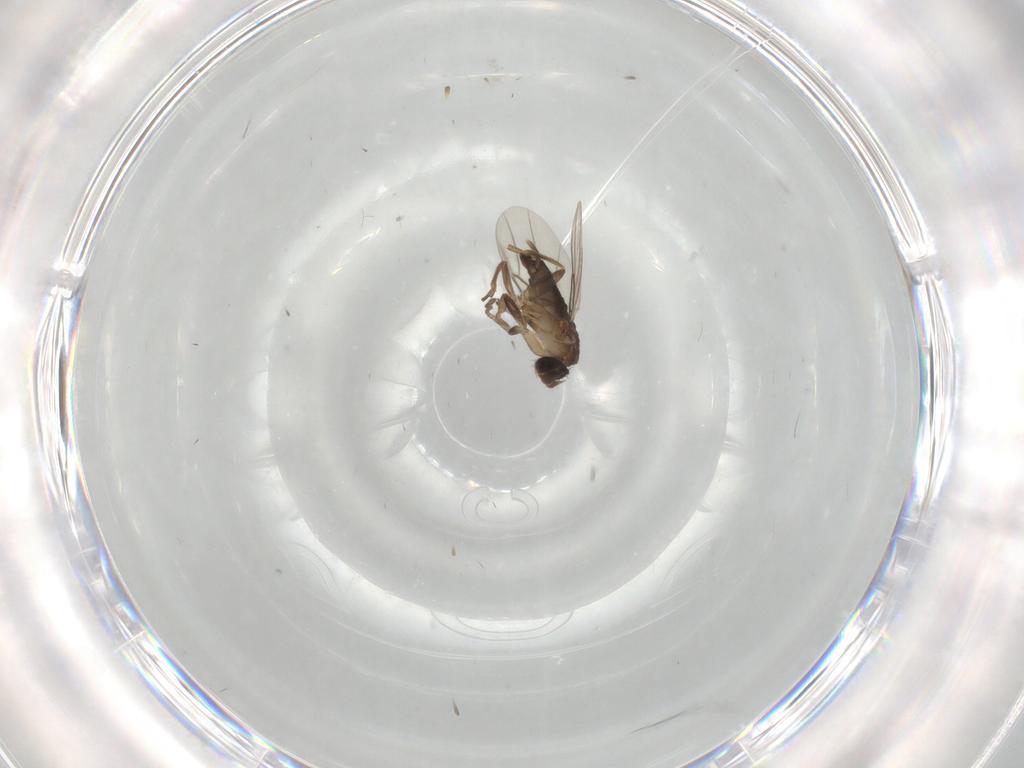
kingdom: Animalia
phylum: Arthropoda
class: Insecta
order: Diptera
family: Phoridae
